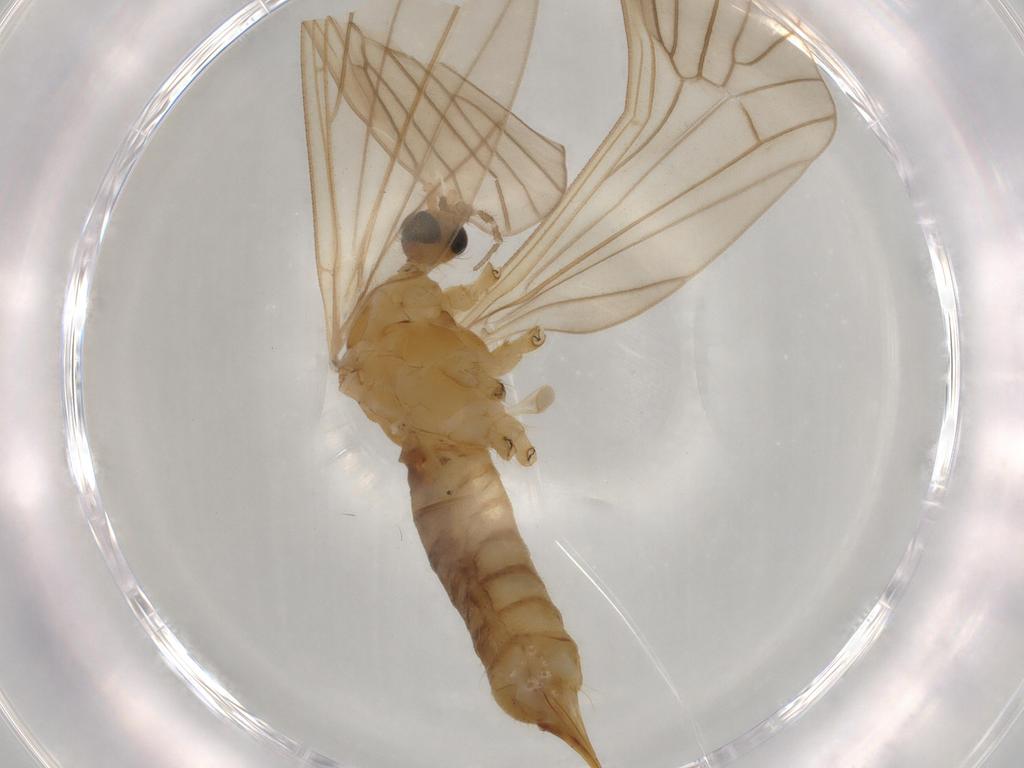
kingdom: Animalia
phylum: Arthropoda
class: Insecta
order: Diptera
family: Limoniidae
